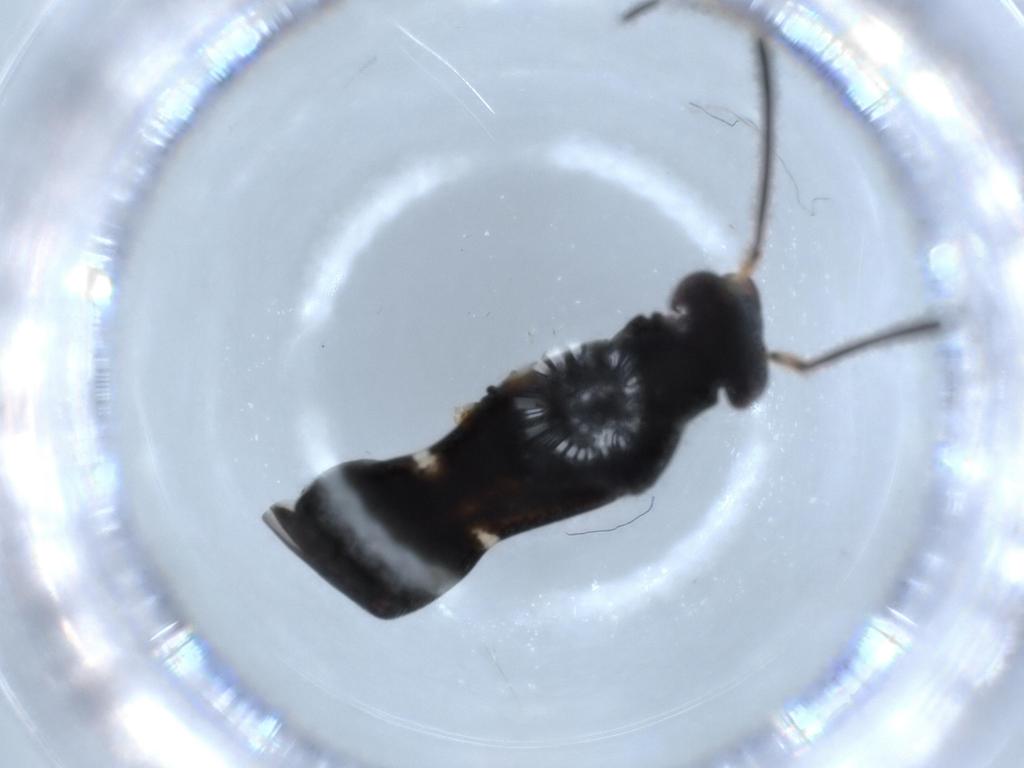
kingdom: Animalia
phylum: Arthropoda
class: Insecta
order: Hemiptera
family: Miridae
